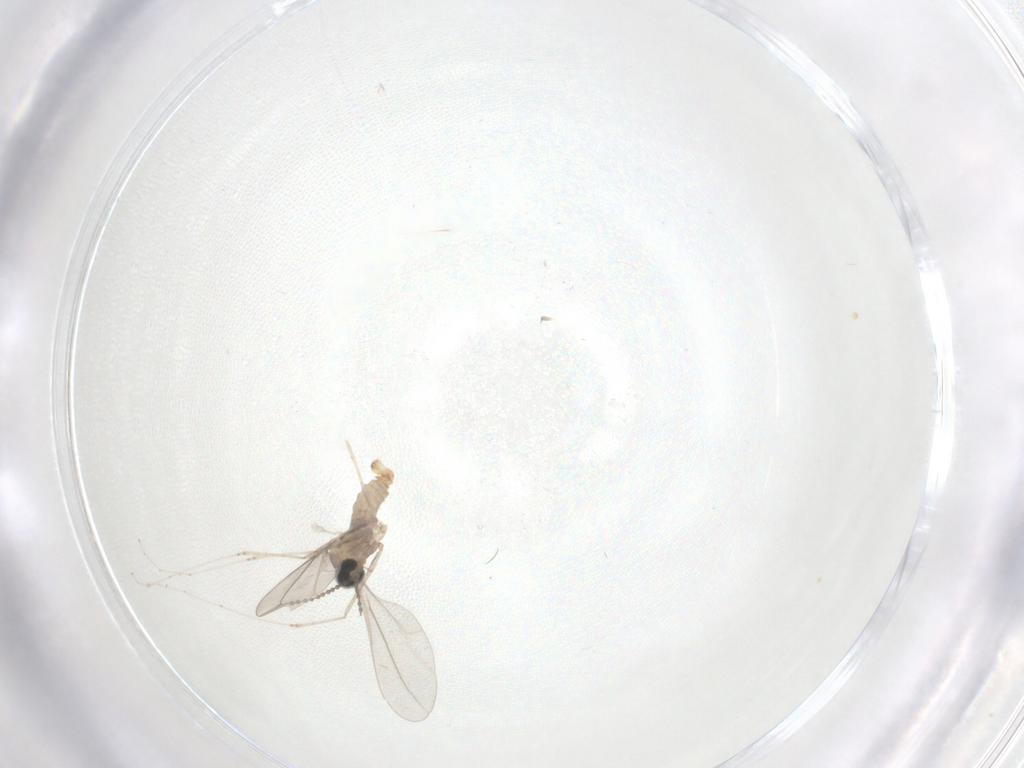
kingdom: Animalia
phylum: Arthropoda
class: Insecta
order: Diptera
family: Cecidomyiidae
